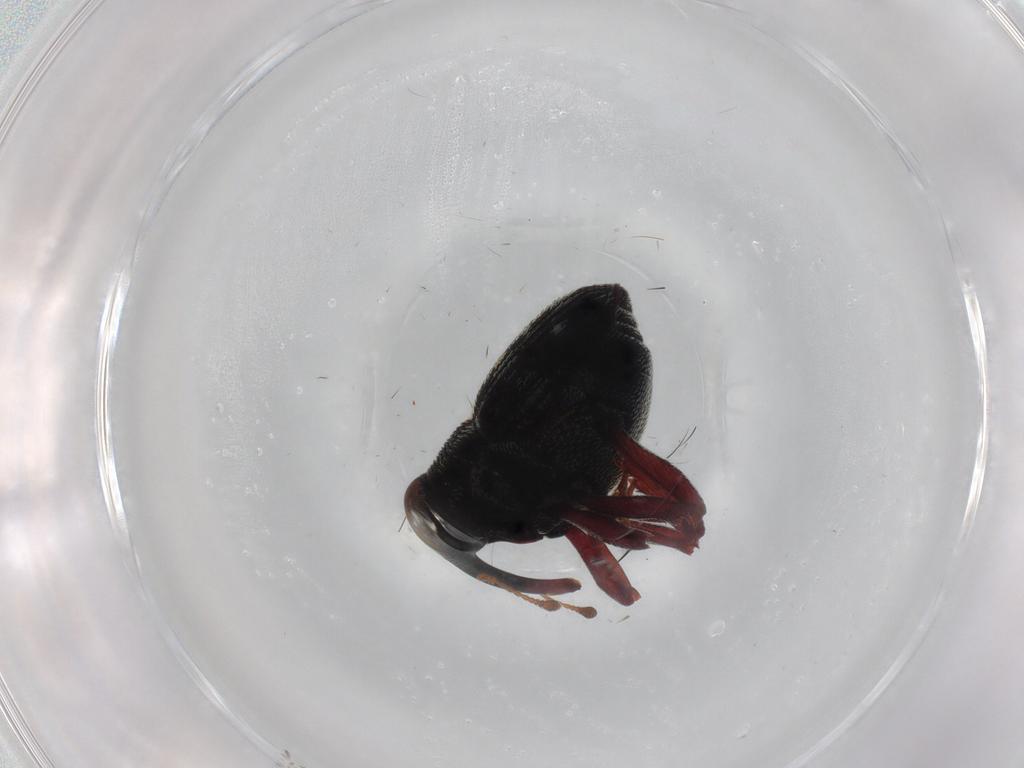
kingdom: Animalia
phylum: Arthropoda
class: Insecta
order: Coleoptera
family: Curculionidae
